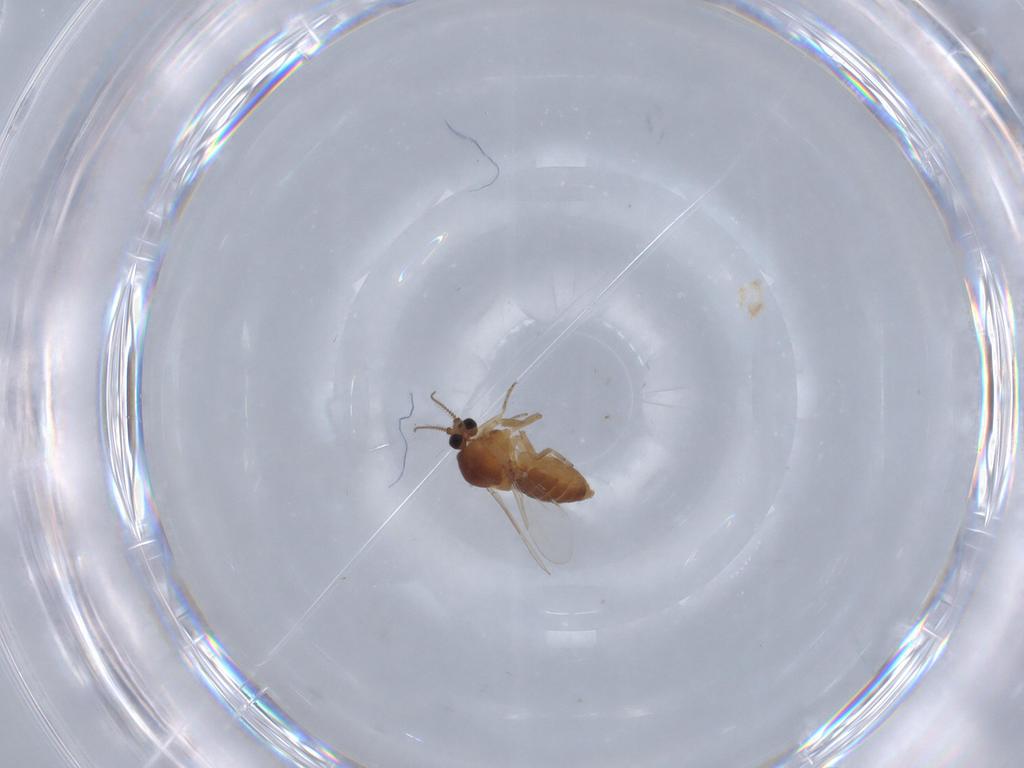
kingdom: Animalia
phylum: Arthropoda
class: Insecta
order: Diptera
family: Ceratopogonidae
